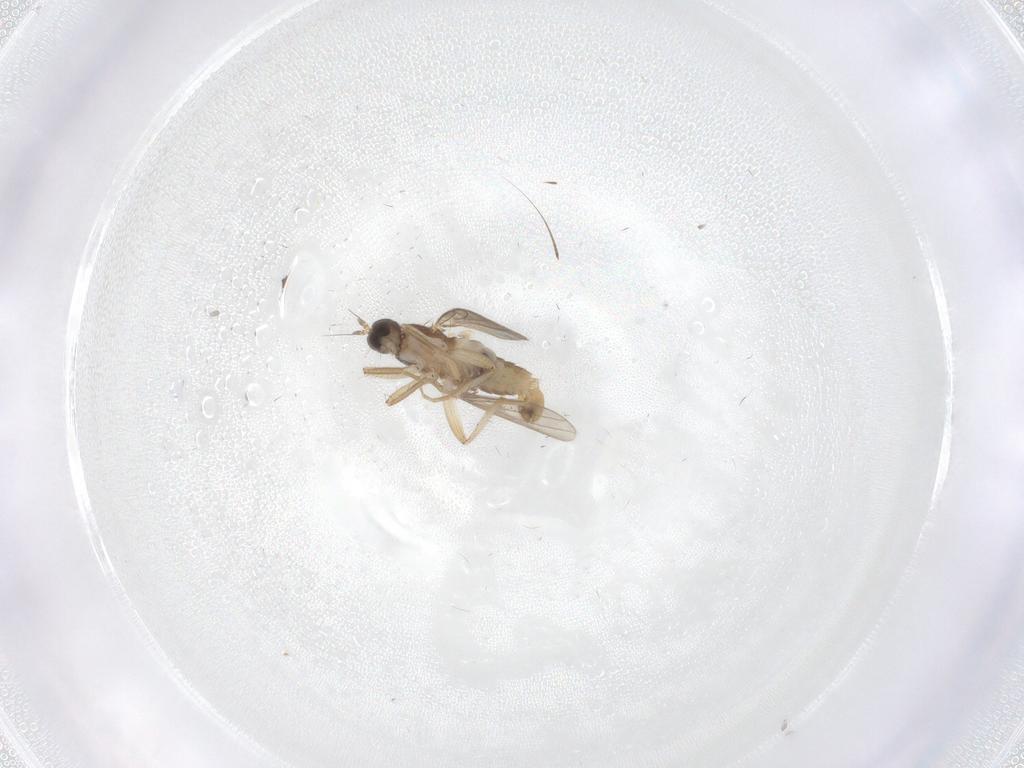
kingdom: Animalia
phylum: Arthropoda
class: Insecta
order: Diptera
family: Hybotidae
